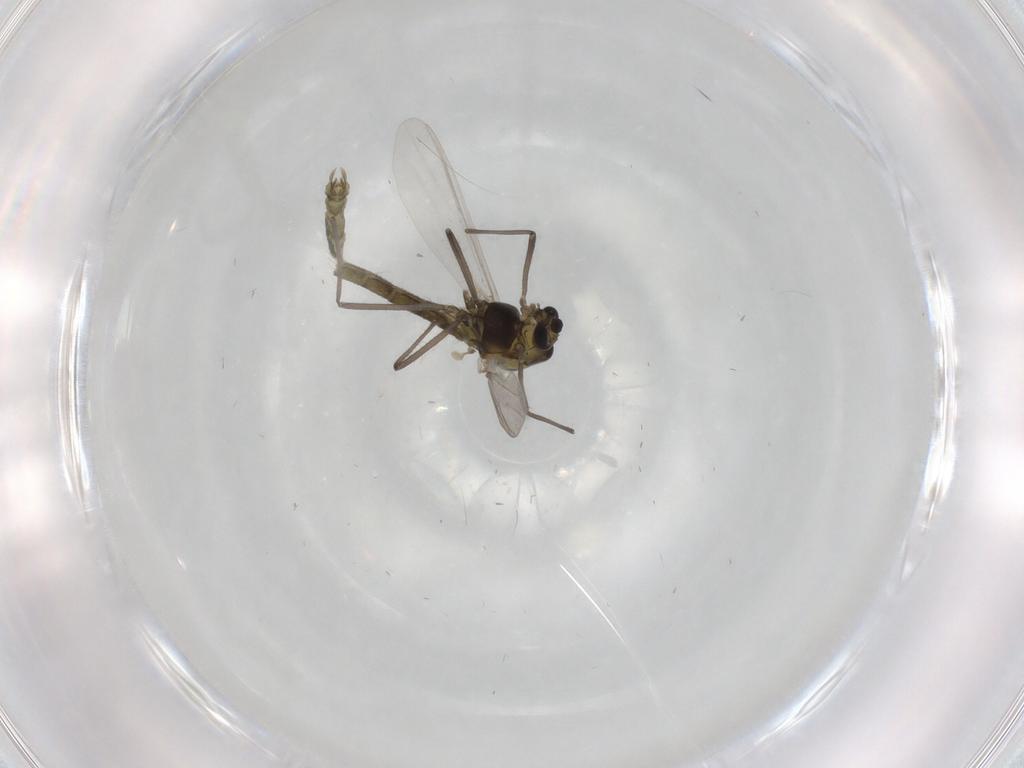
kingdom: Animalia
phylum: Arthropoda
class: Insecta
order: Diptera
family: Chironomidae
